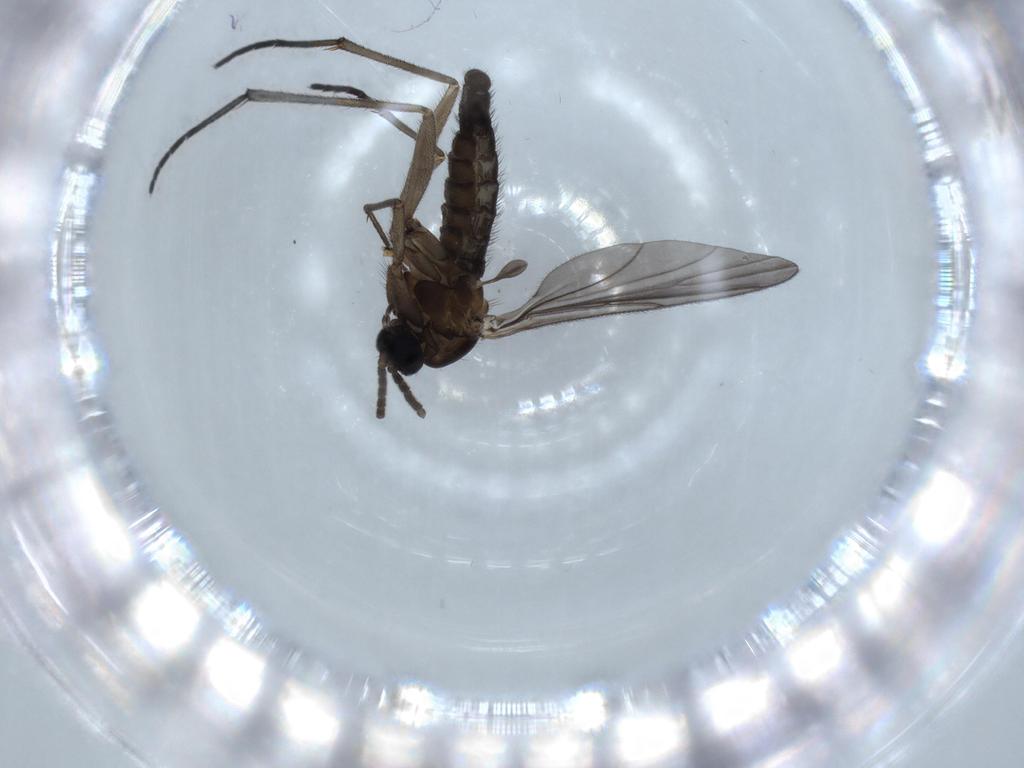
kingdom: Animalia
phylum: Arthropoda
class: Insecta
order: Diptera
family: Sciaridae
